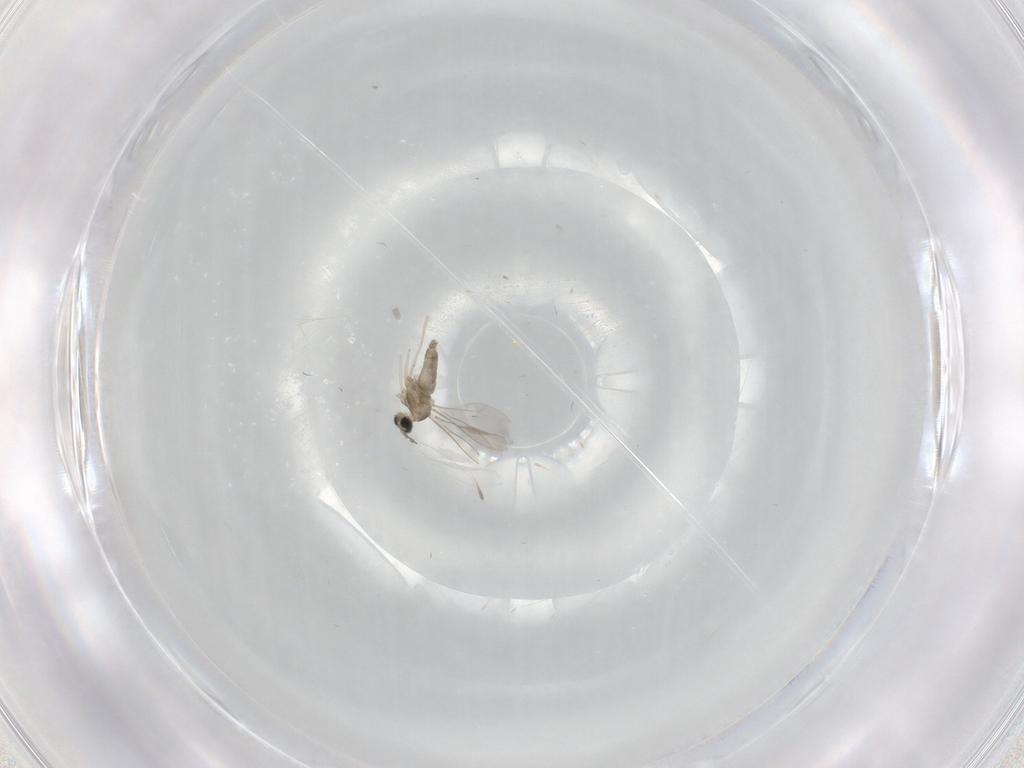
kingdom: Animalia
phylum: Arthropoda
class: Insecta
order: Diptera
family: Cecidomyiidae
